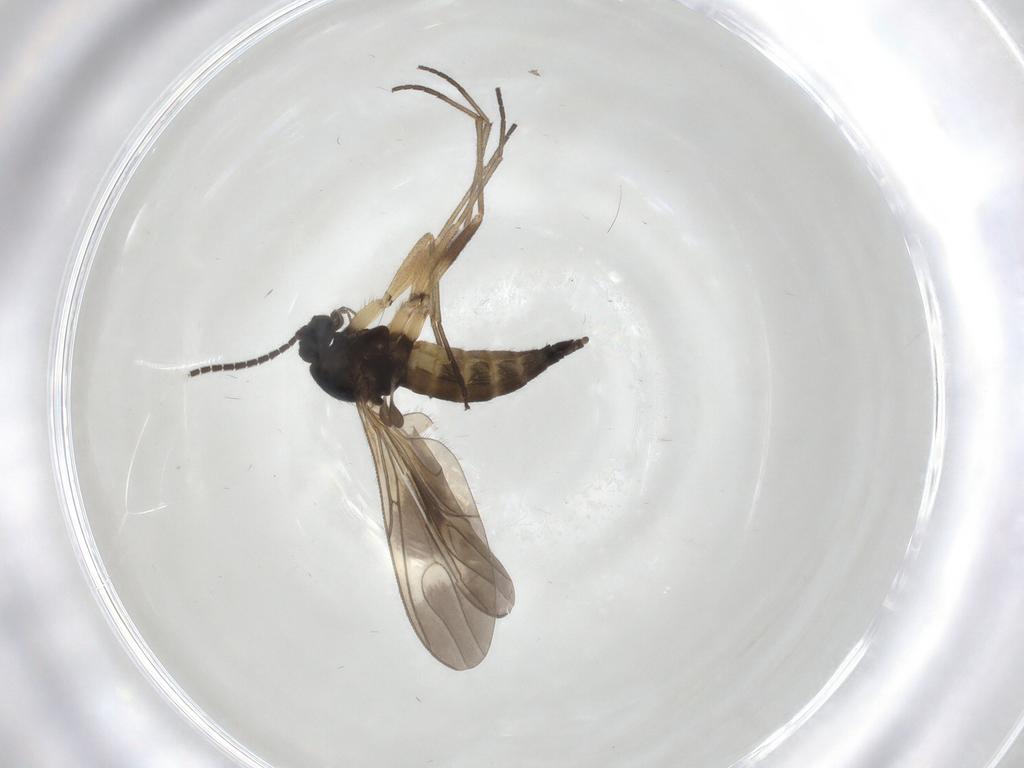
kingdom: Animalia
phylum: Arthropoda
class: Insecta
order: Diptera
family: Sciaridae
